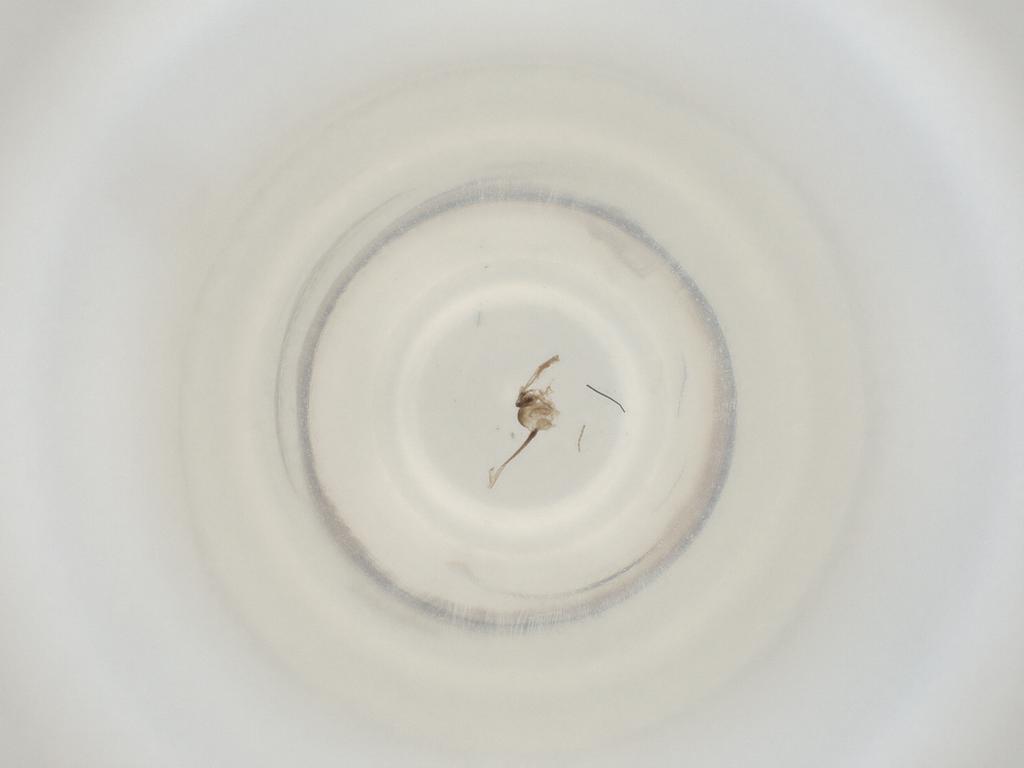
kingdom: Animalia
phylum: Arthropoda
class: Insecta
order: Diptera
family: Cecidomyiidae
